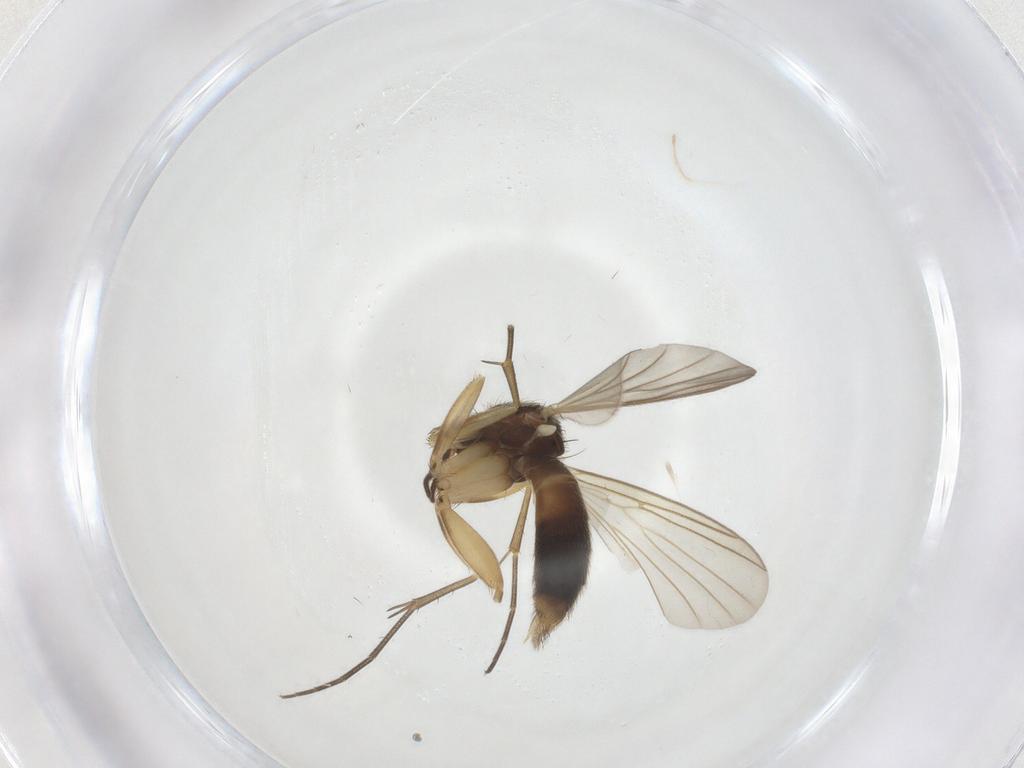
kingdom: Animalia
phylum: Arthropoda
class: Insecta
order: Diptera
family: Mycetophilidae
